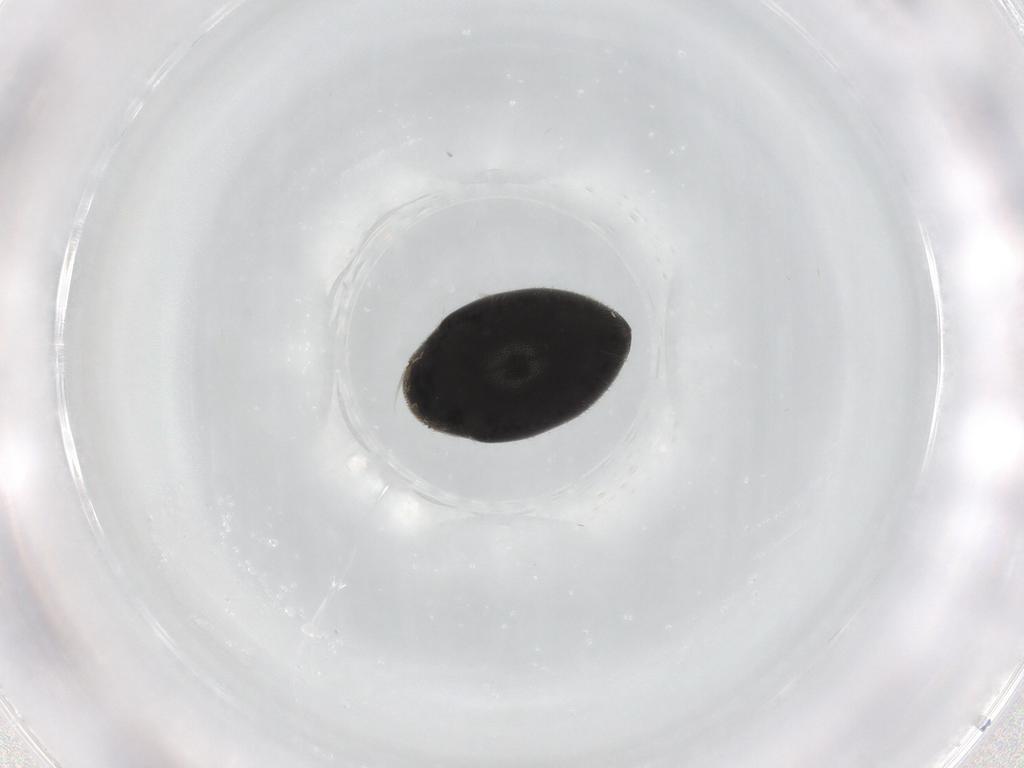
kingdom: Animalia
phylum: Arthropoda
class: Insecta
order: Coleoptera
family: Limnichidae
